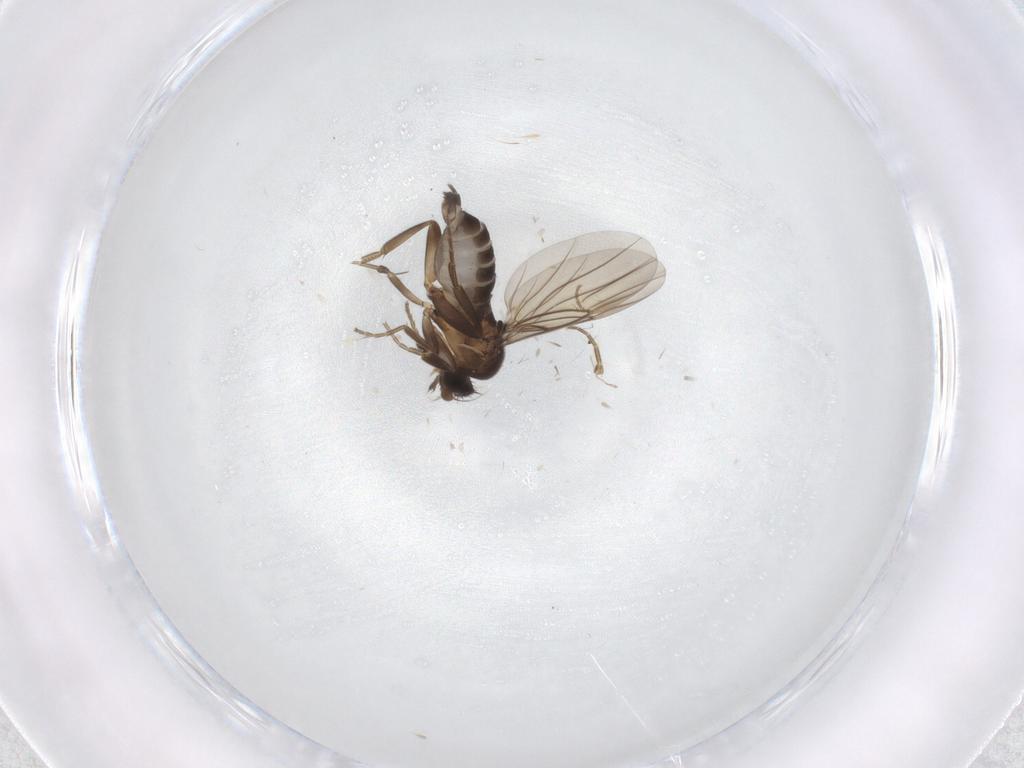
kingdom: Animalia
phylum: Arthropoda
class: Insecta
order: Diptera
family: Phoridae
